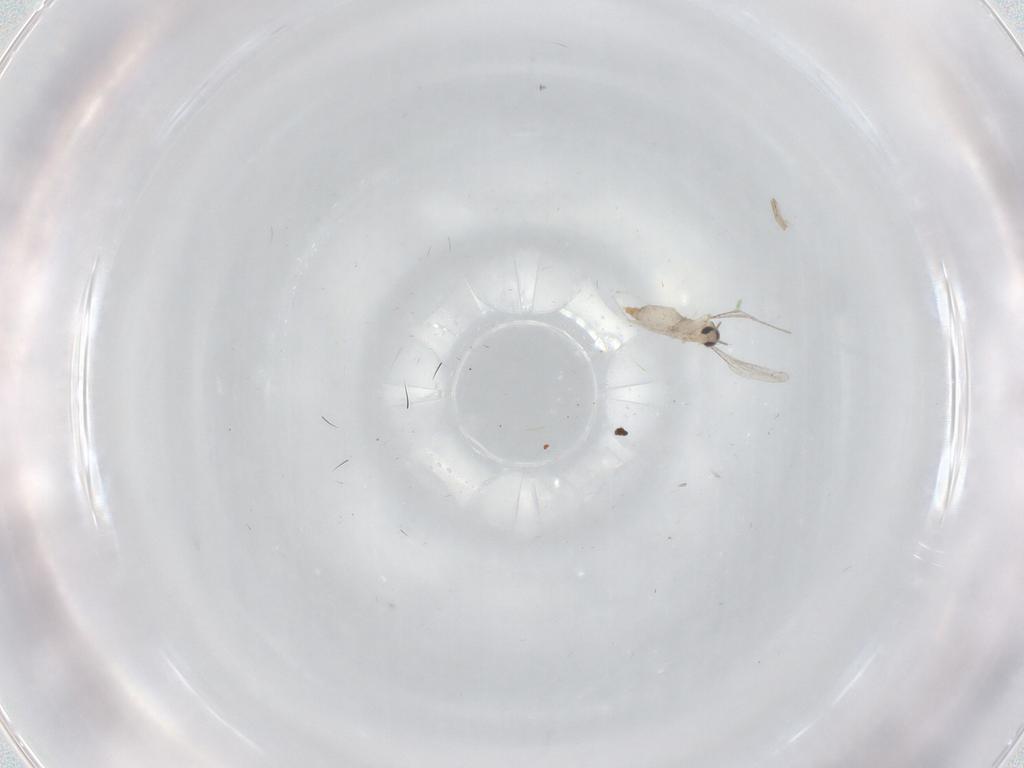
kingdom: Animalia
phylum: Arthropoda
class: Insecta
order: Diptera
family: Cecidomyiidae
